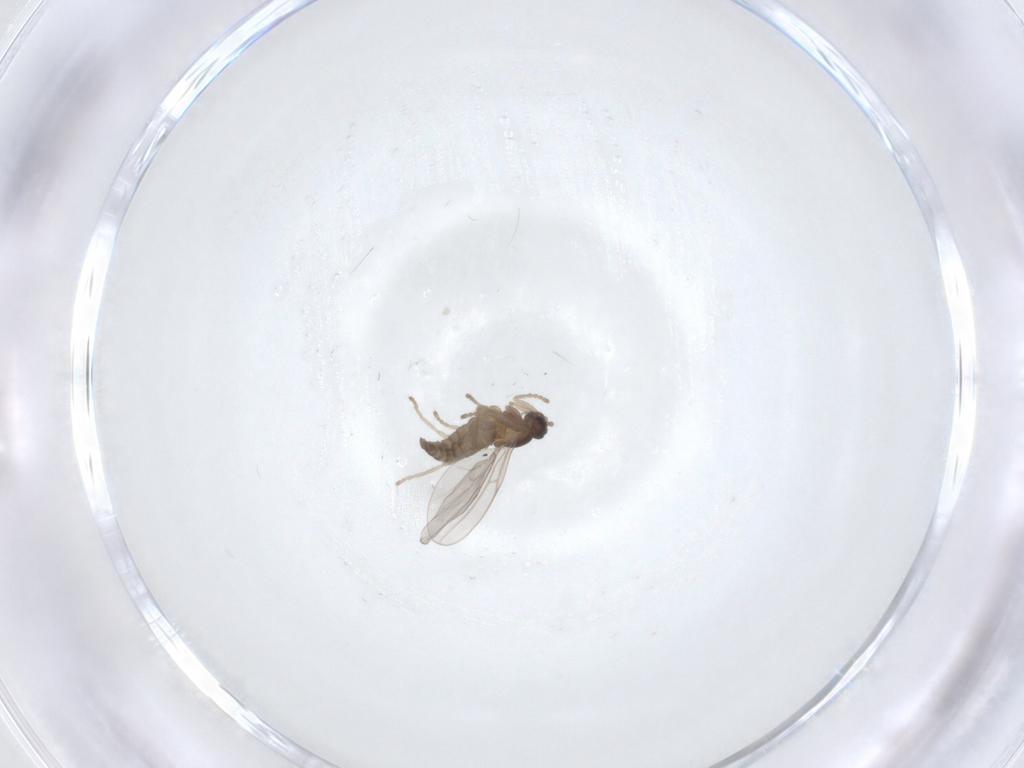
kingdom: Animalia
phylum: Arthropoda
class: Insecta
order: Diptera
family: Cecidomyiidae
